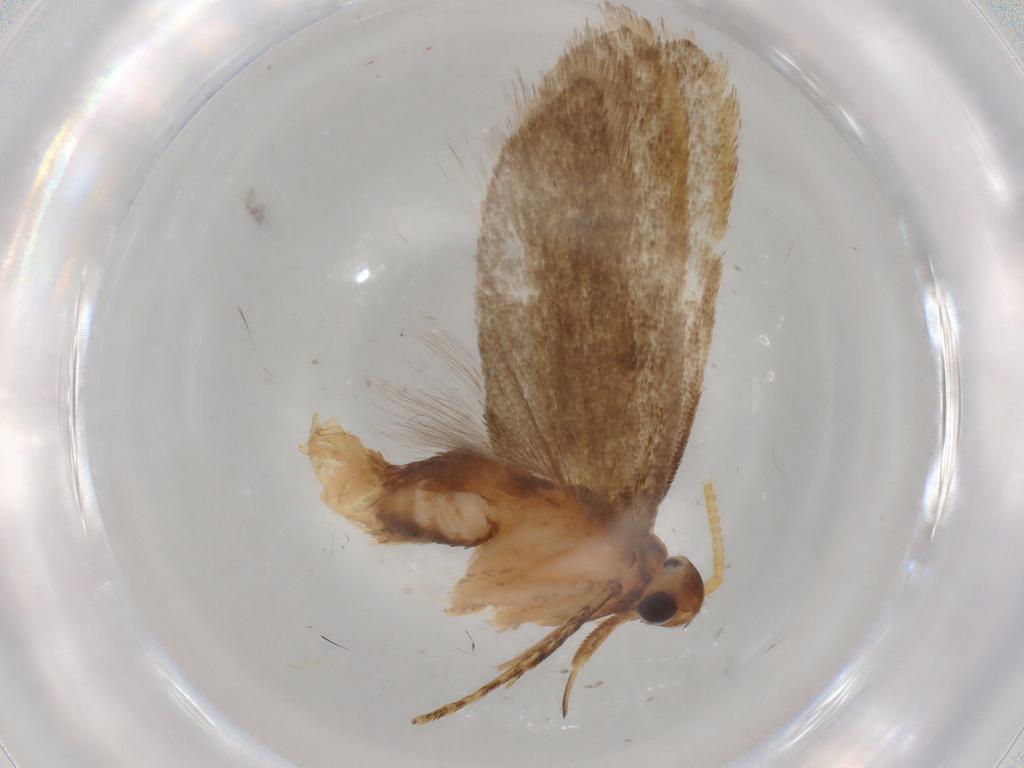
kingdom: Animalia
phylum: Arthropoda
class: Insecta
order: Lepidoptera
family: Lecithoceridae
